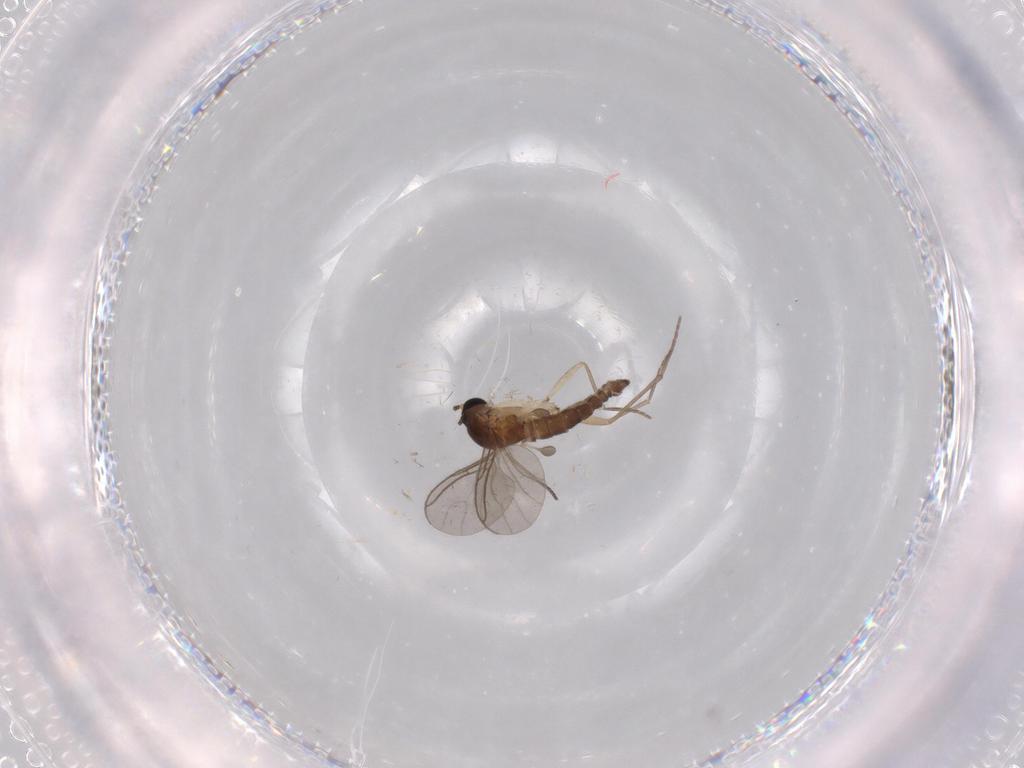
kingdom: Animalia
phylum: Arthropoda
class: Insecta
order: Diptera
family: Sciaridae
